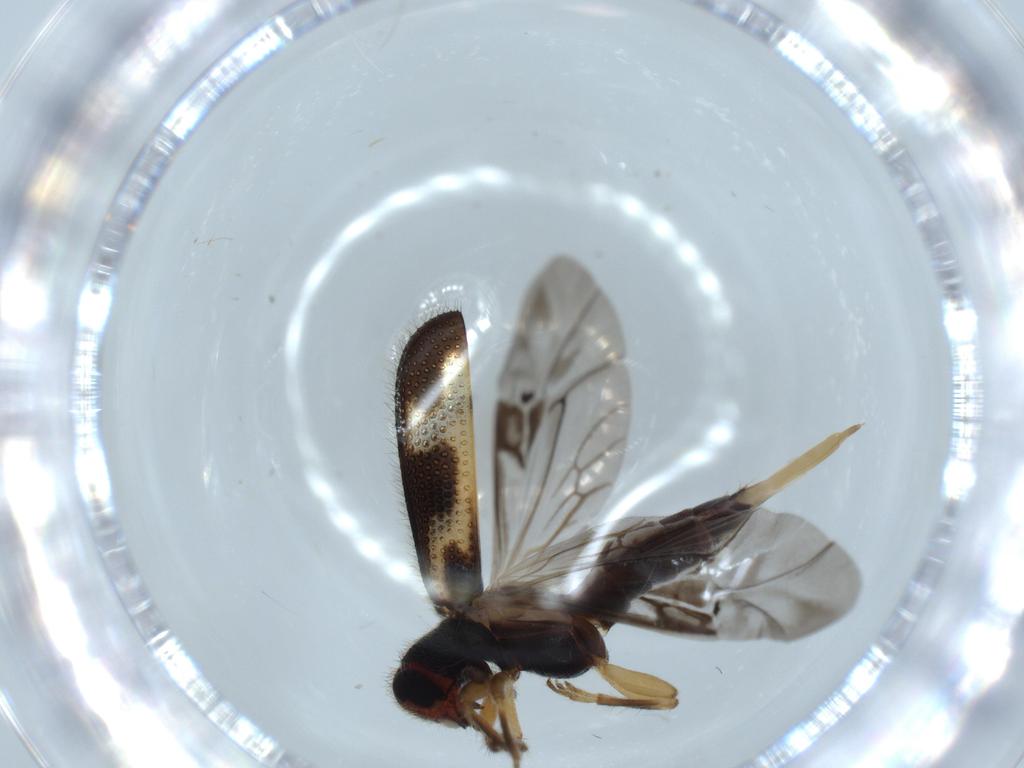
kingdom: Animalia
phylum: Arthropoda
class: Insecta
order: Coleoptera
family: Cleridae
